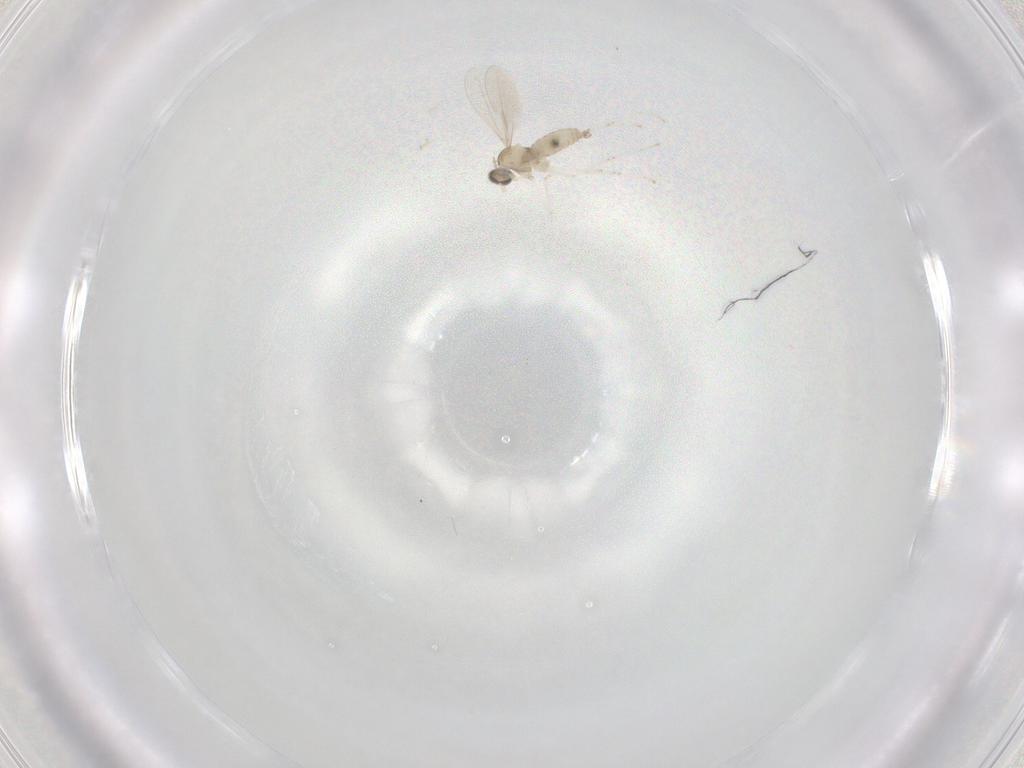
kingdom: Animalia
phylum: Arthropoda
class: Insecta
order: Diptera
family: Cecidomyiidae
